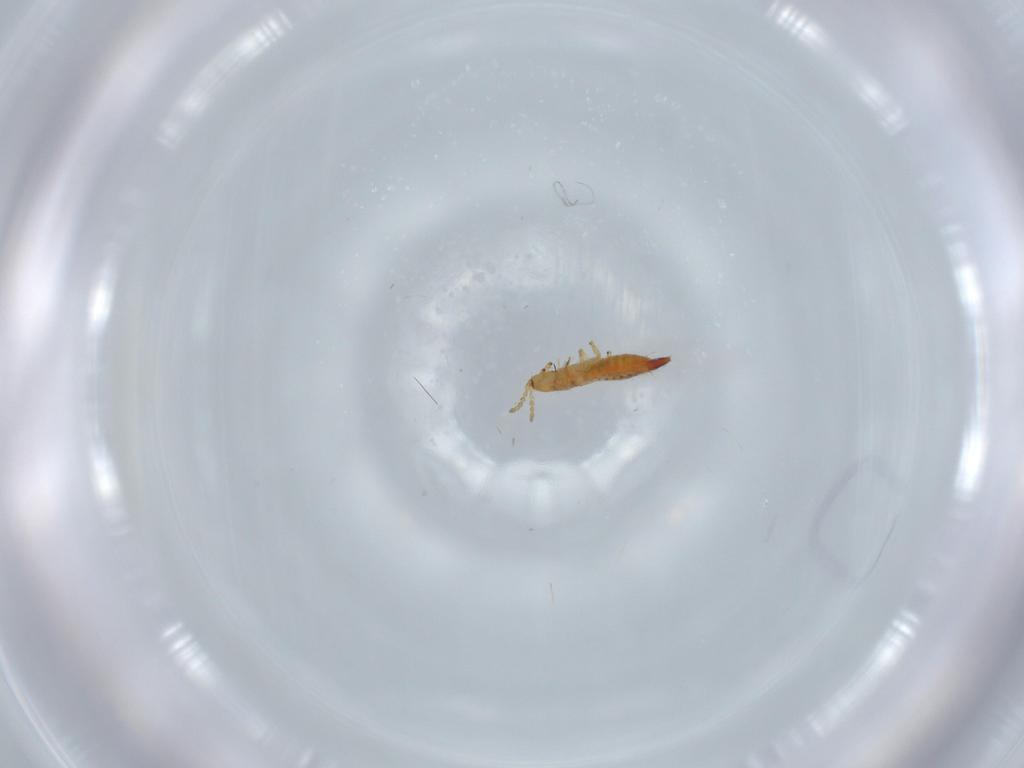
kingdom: Animalia
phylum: Arthropoda
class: Insecta
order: Thysanoptera
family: Phlaeothripidae
